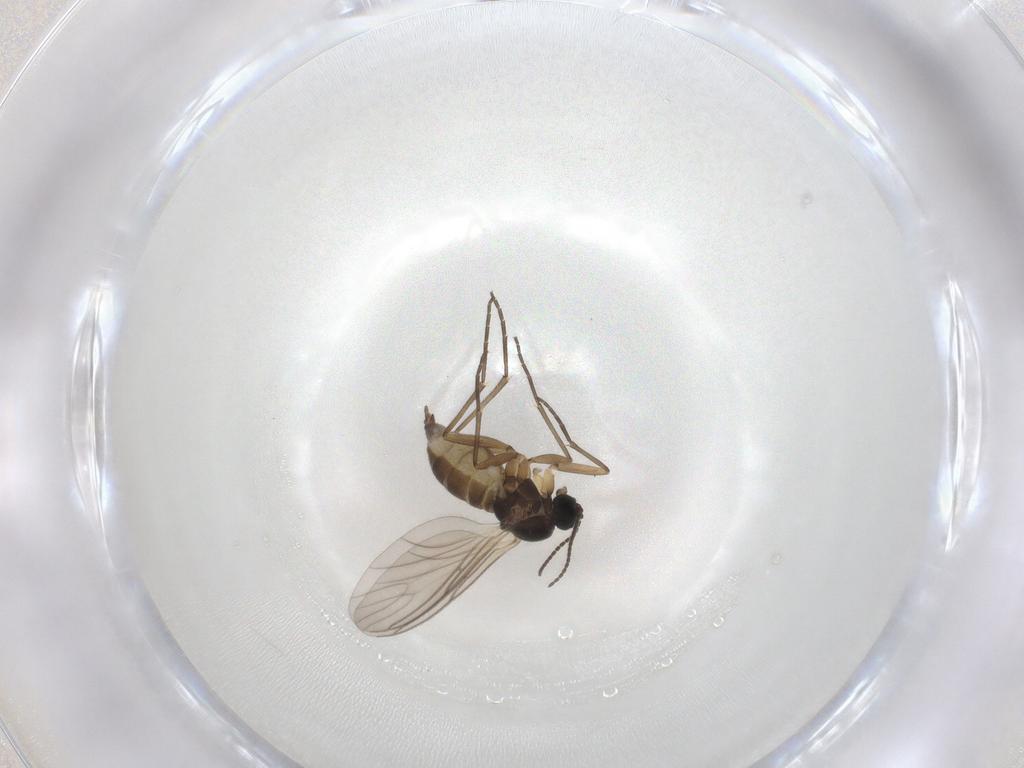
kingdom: Animalia
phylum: Arthropoda
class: Insecta
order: Diptera
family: Sciaridae
